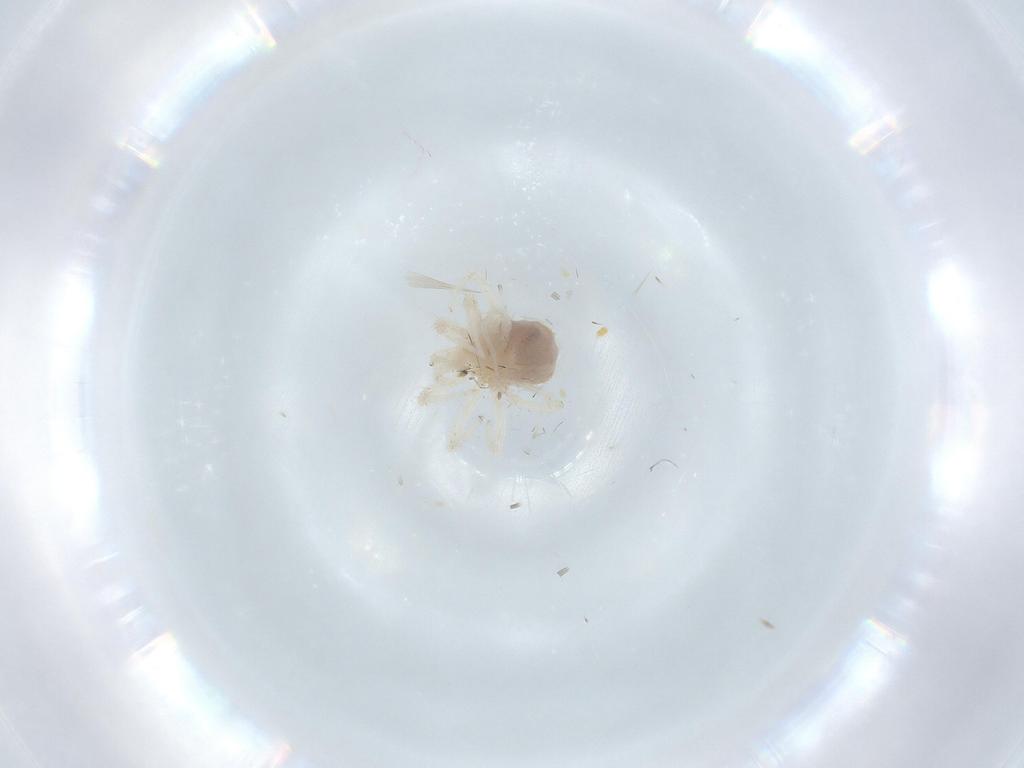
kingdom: Animalia
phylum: Arthropoda
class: Arachnida
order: Trombidiformes
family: Anystidae
